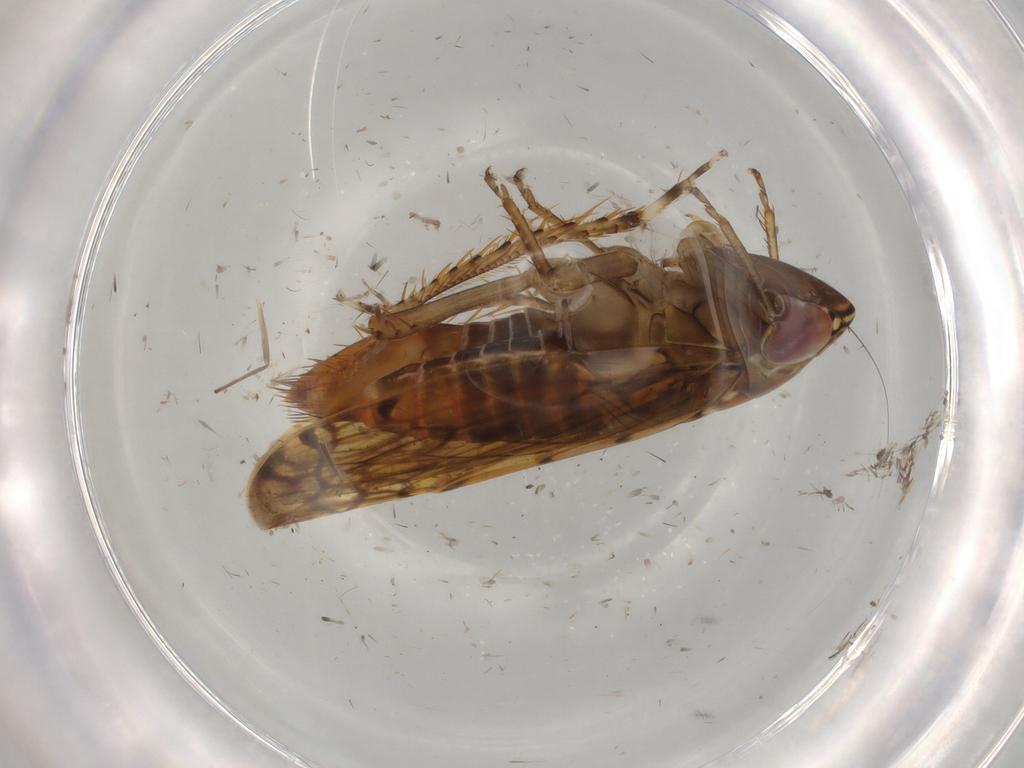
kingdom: Animalia
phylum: Arthropoda
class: Insecta
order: Hemiptera
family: Cicadellidae
